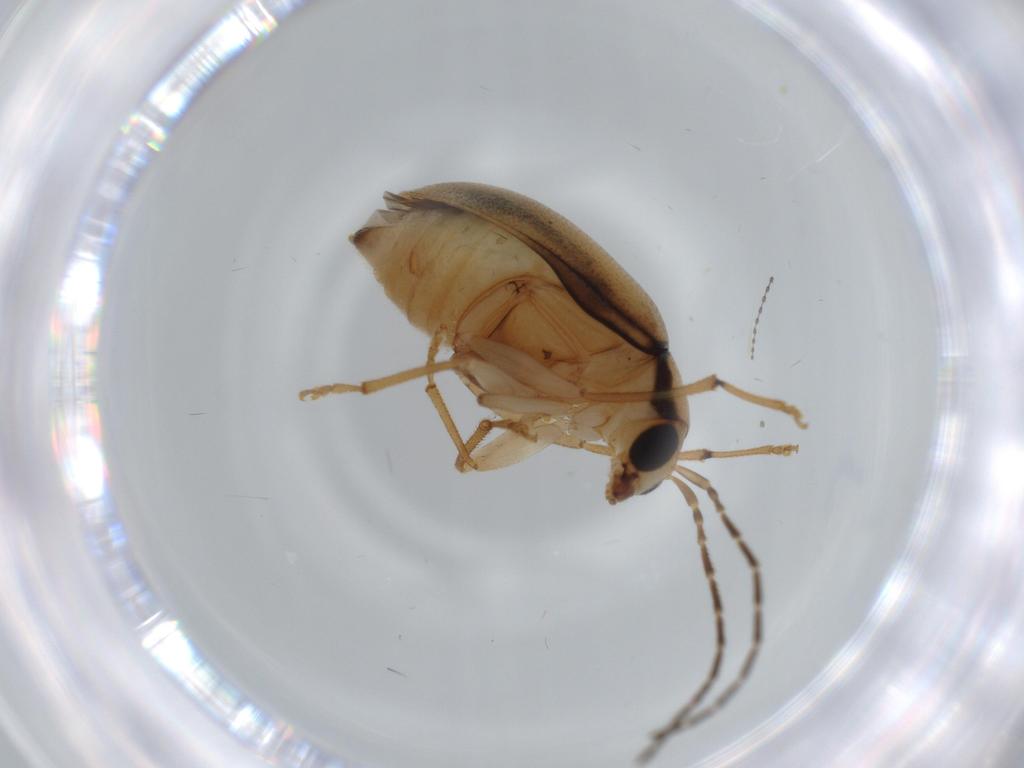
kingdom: Animalia
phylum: Arthropoda
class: Insecta
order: Coleoptera
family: Chrysomelidae
